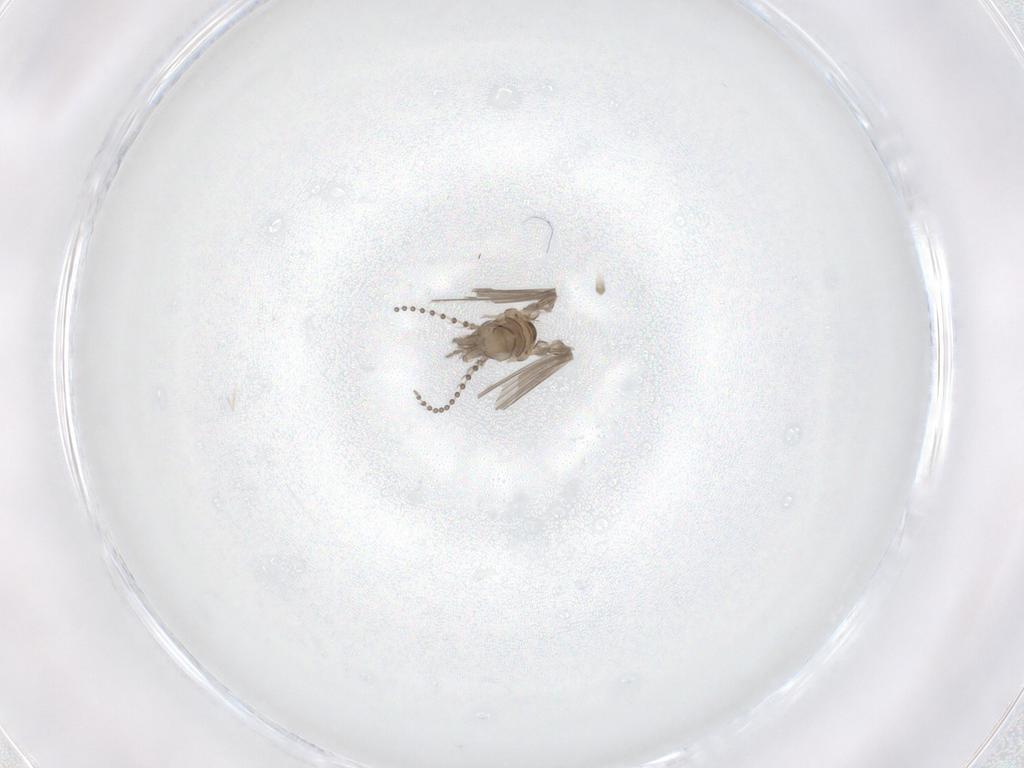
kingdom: Animalia
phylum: Arthropoda
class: Insecta
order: Diptera
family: Psychodidae
